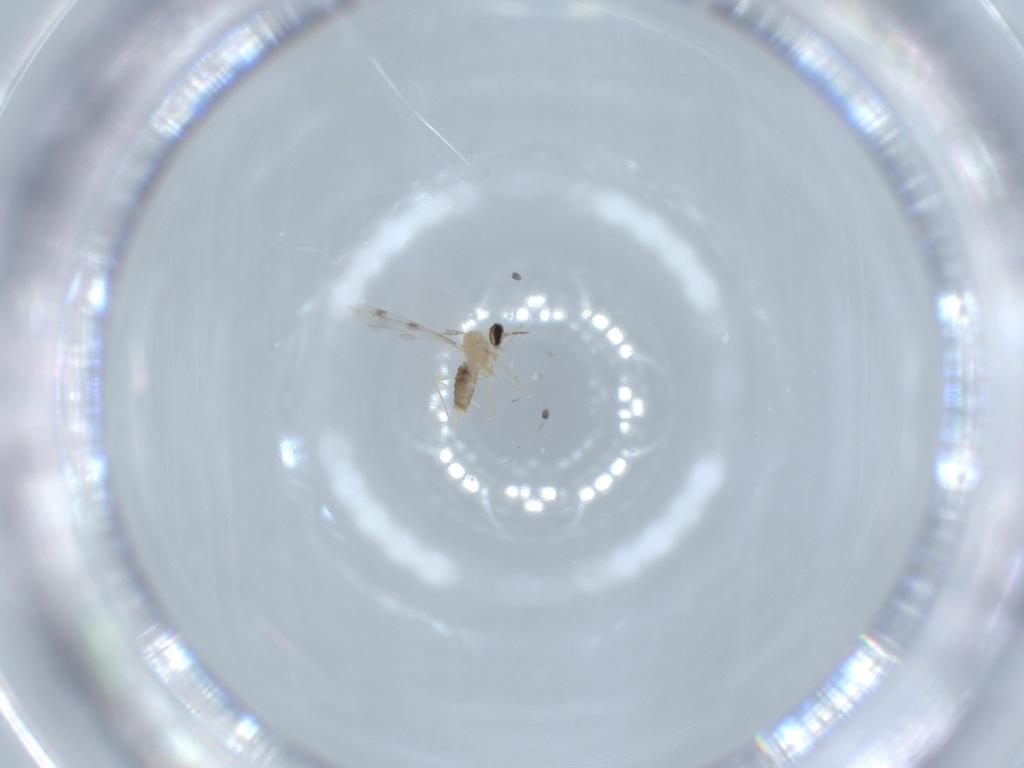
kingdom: Animalia
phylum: Arthropoda
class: Insecta
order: Diptera
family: Cecidomyiidae
